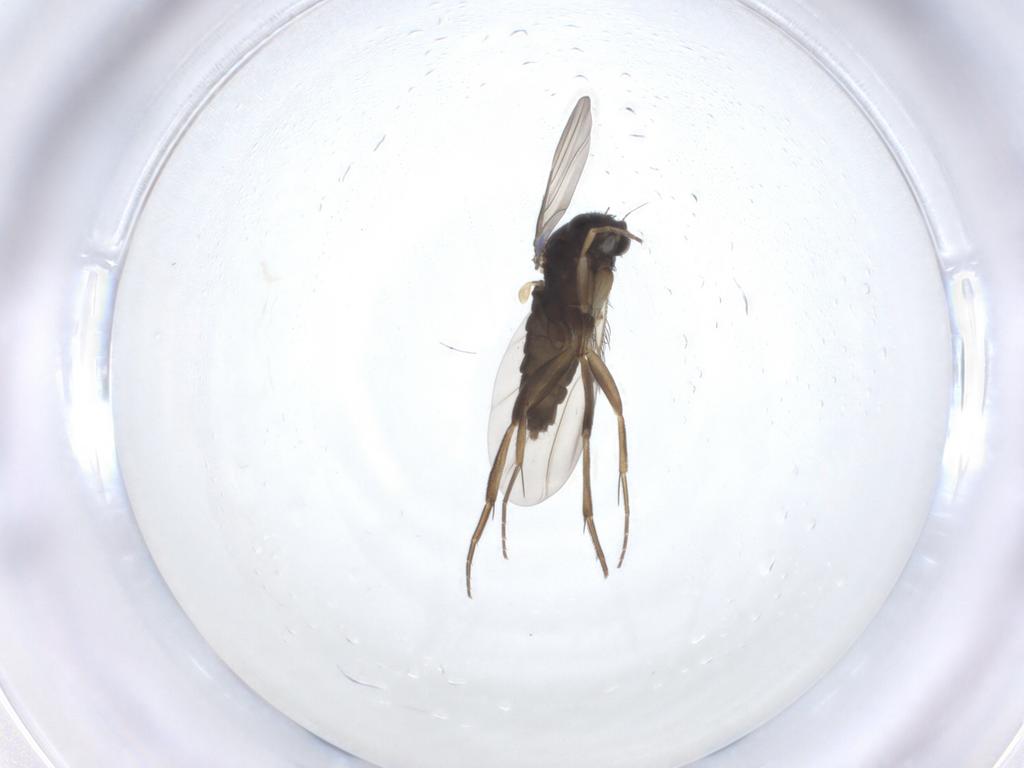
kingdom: Animalia
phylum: Arthropoda
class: Insecta
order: Diptera
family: Phoridae
